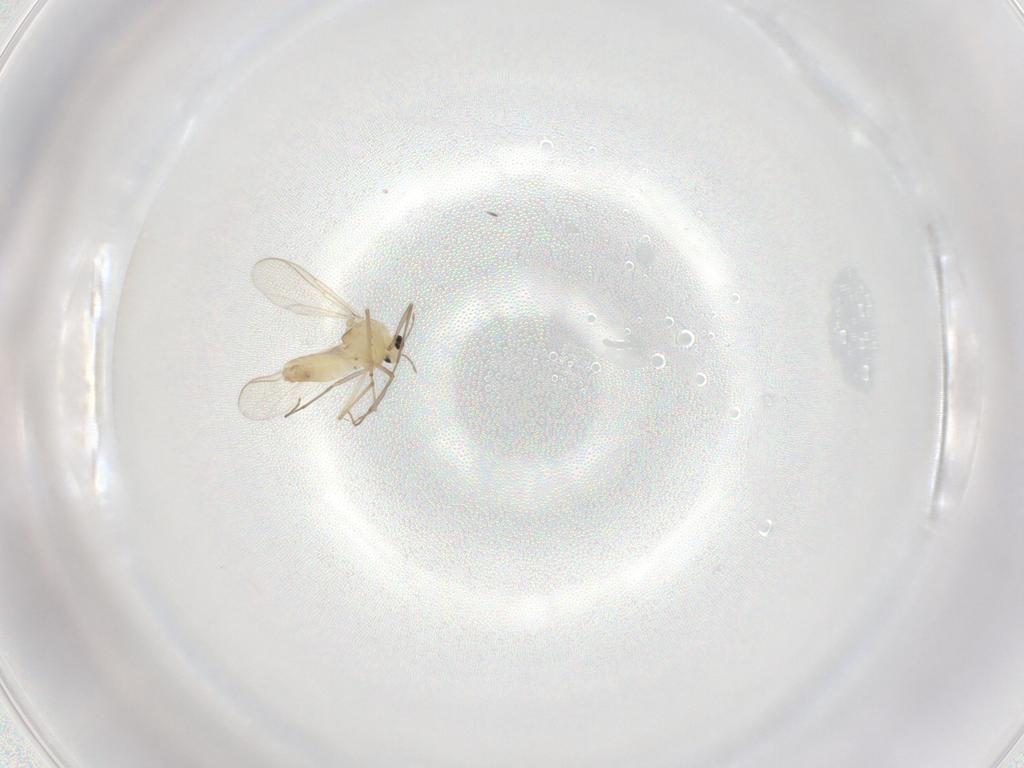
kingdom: Animalia
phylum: Arthropoda
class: Insecta
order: Diptera
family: Chironomidae
